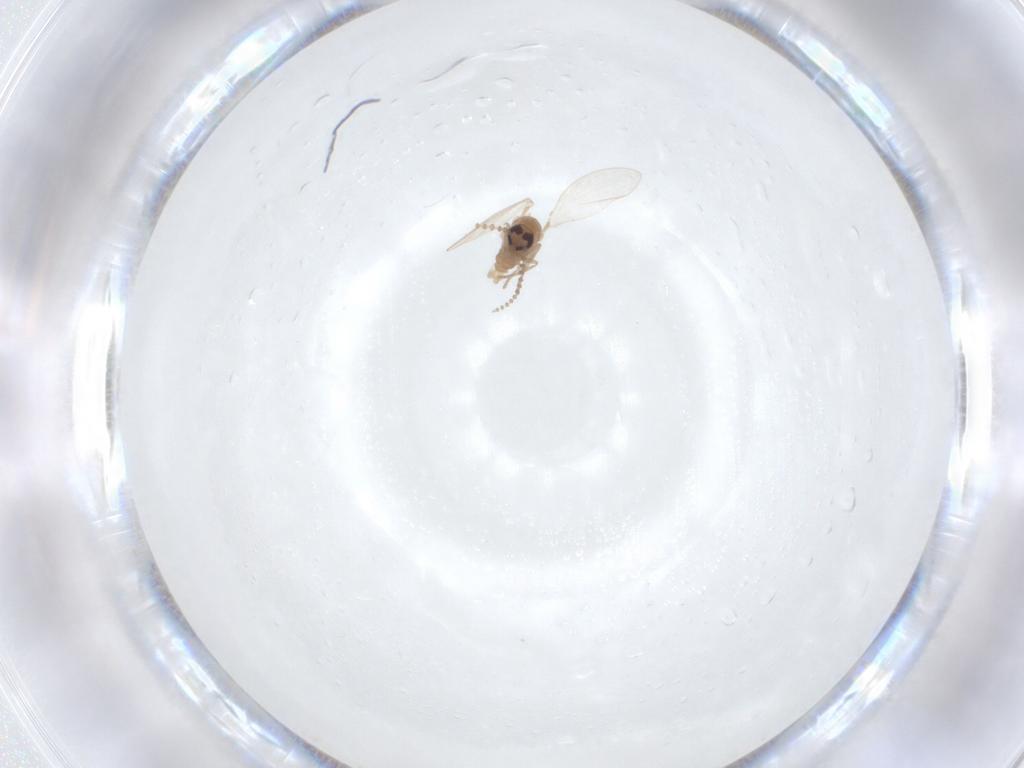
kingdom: Animalia
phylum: Arthropoda
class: Insecta
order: Diptera
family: Psychodidae
